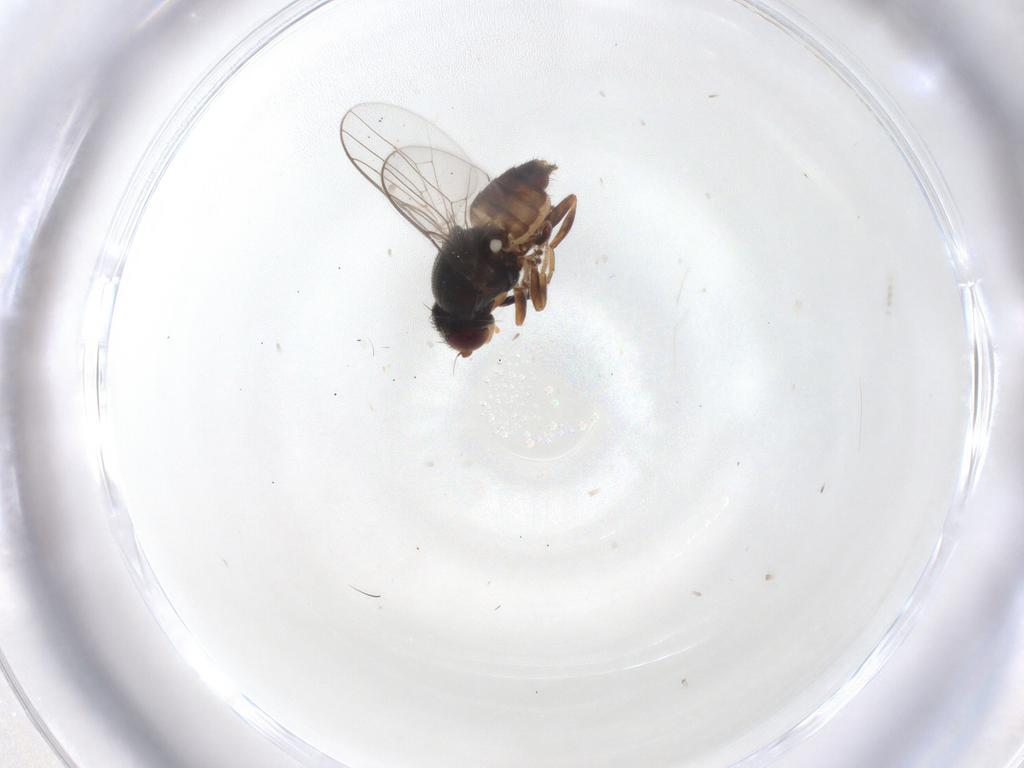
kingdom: Animalia
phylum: Arthropoda
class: Insecta
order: Diptera
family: Chloropidae
